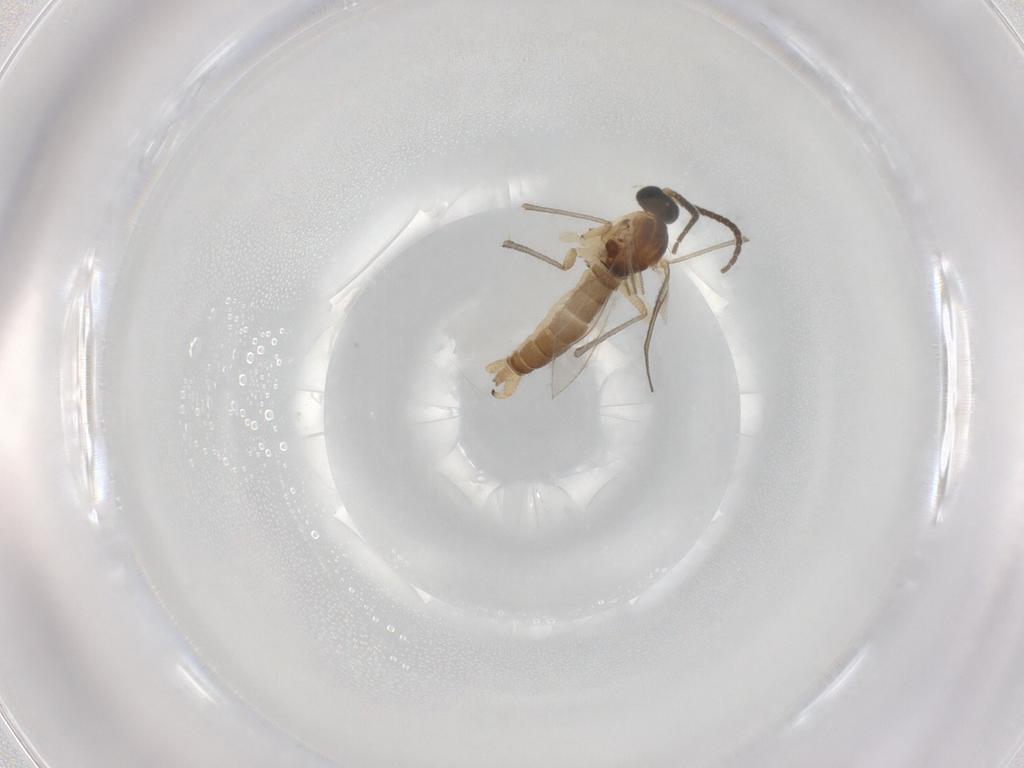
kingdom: Animalia
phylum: Arthropoda
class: Insecta
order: Diptera
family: Sciaridae
